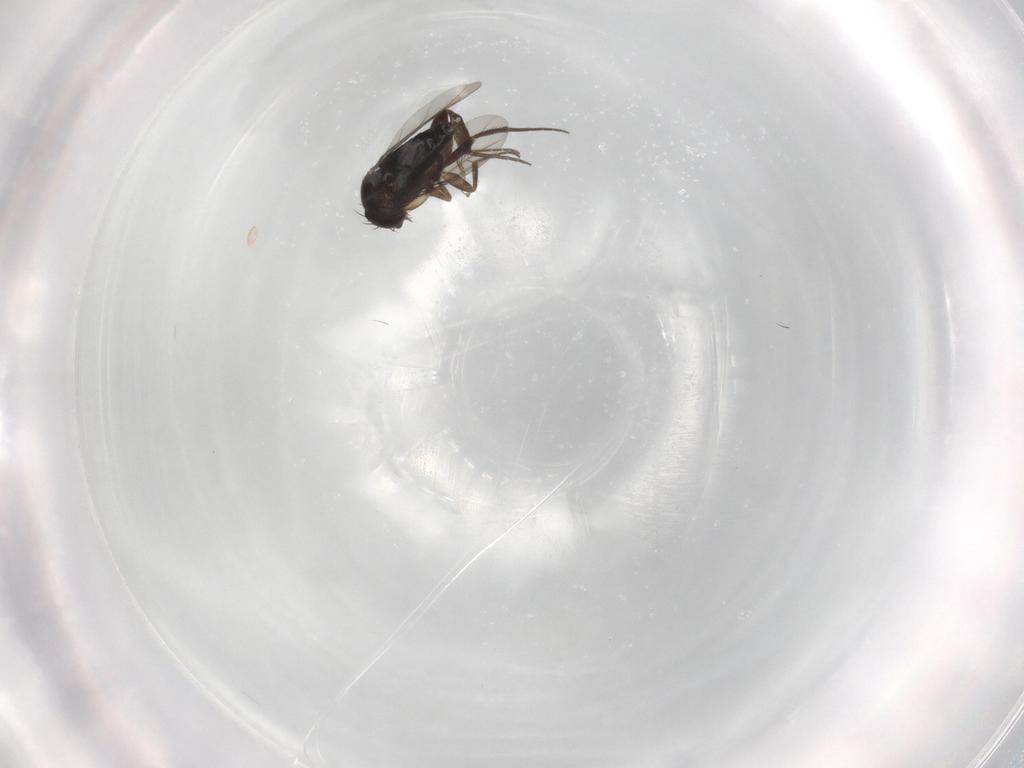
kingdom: Animalia
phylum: Arthropoda
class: Insecta
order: Diptera
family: Phoridae
